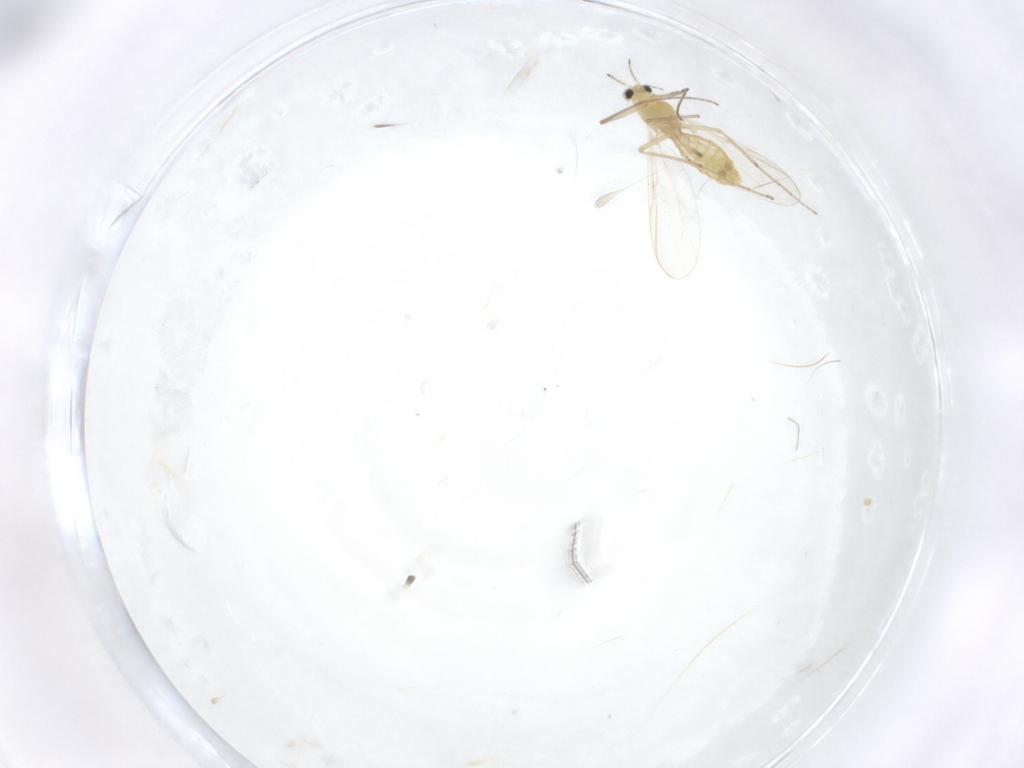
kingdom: Animalia
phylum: Arthropoda
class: Insecta
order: Diptera
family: Chironomidae
